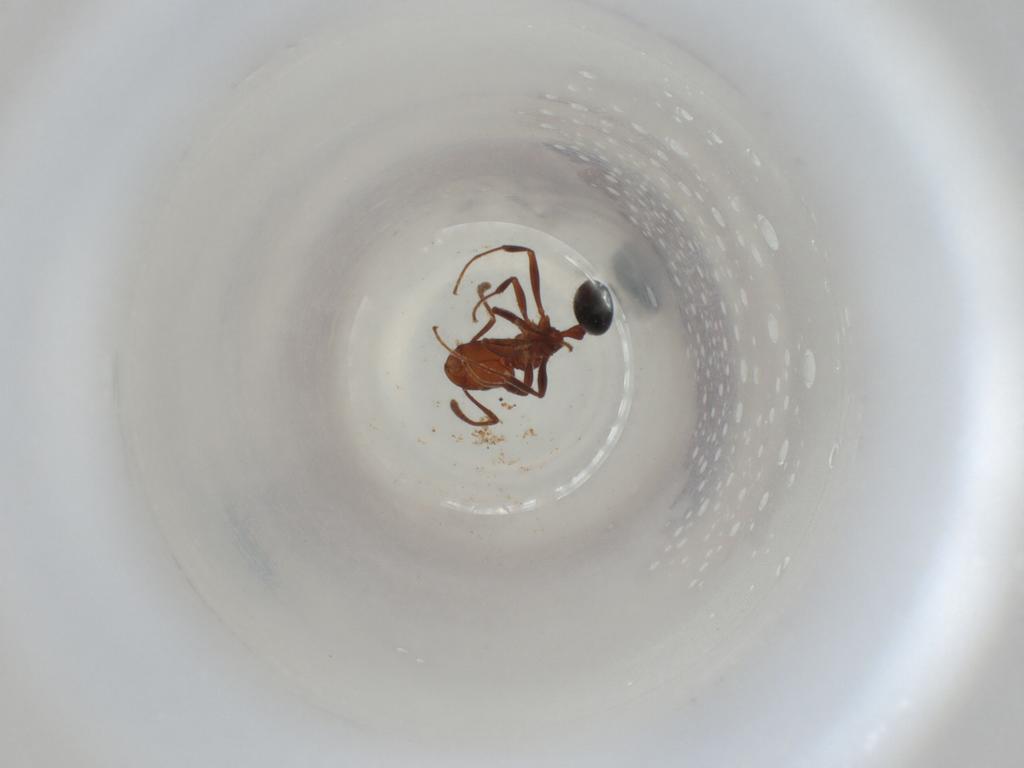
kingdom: Animalia
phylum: Arthropoda
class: Insecta
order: Hymenoptera
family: Formicidae
